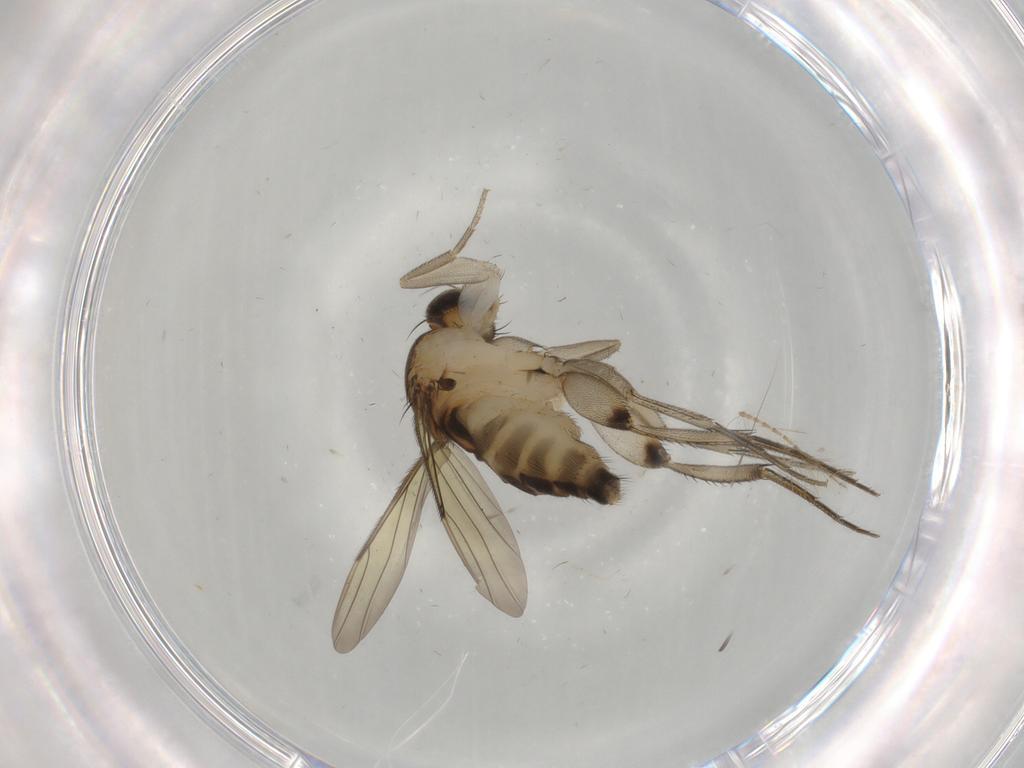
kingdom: Animalia
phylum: Arthropoda
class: Insecta
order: Diptera
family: Phoridae
